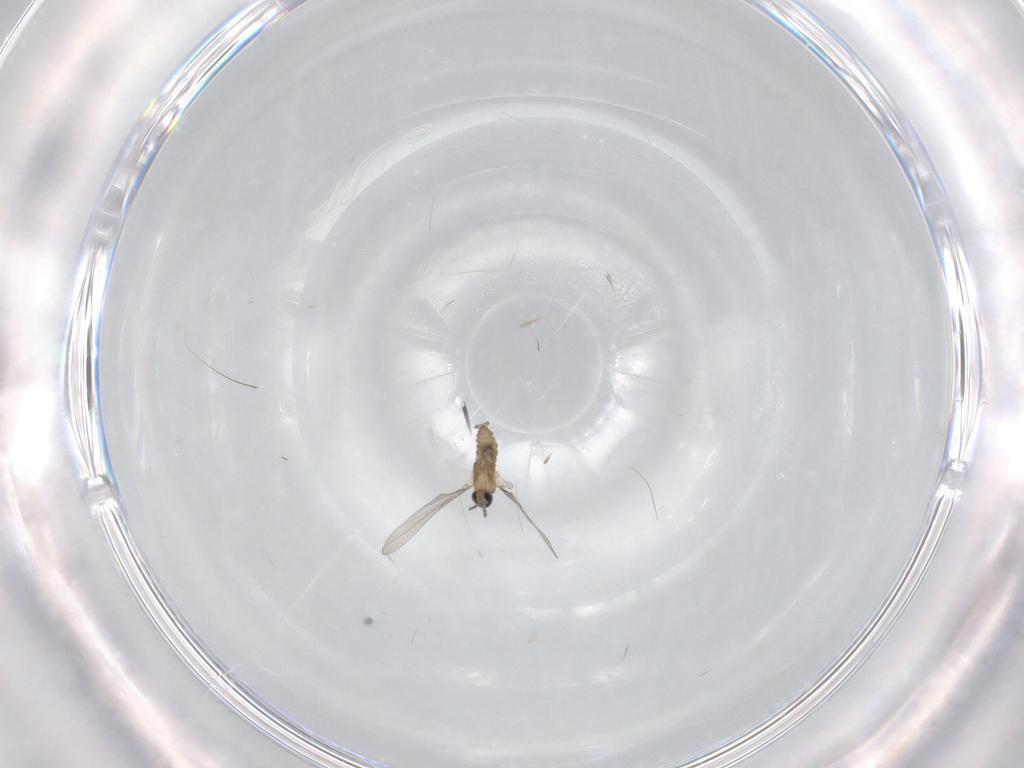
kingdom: Animalia
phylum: Arthropoda
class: Insecta
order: Diptera
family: Cecidomyiidae
